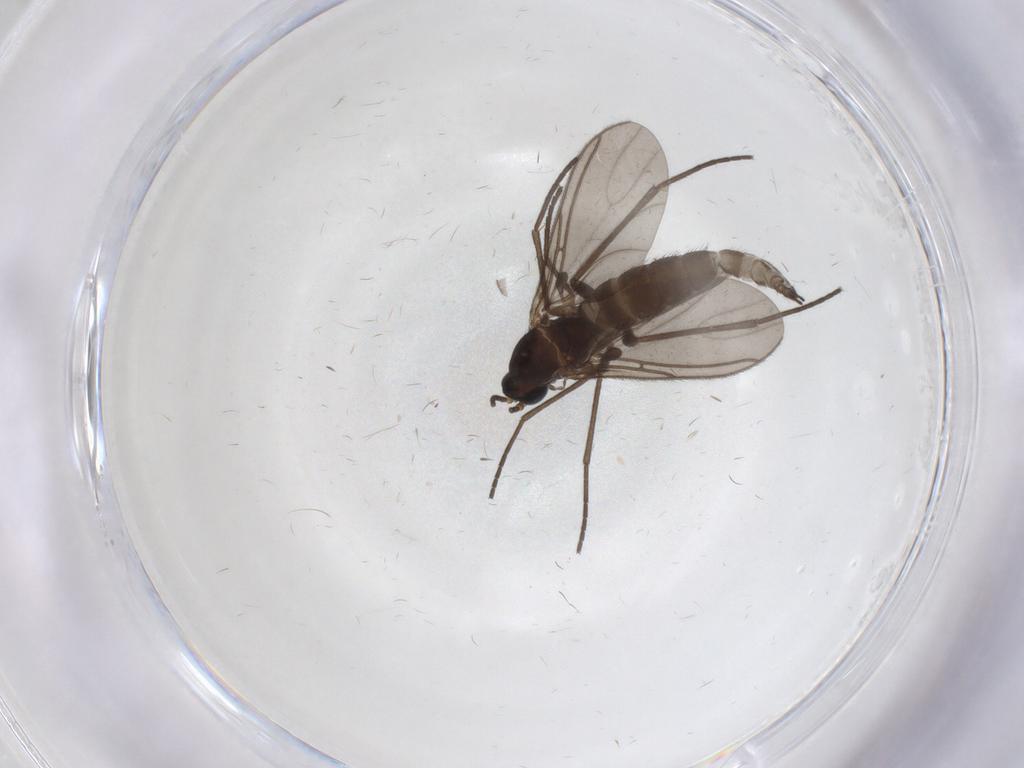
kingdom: Animalia
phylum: Arthropoda
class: Insecta
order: Diptera
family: Sciaridae
